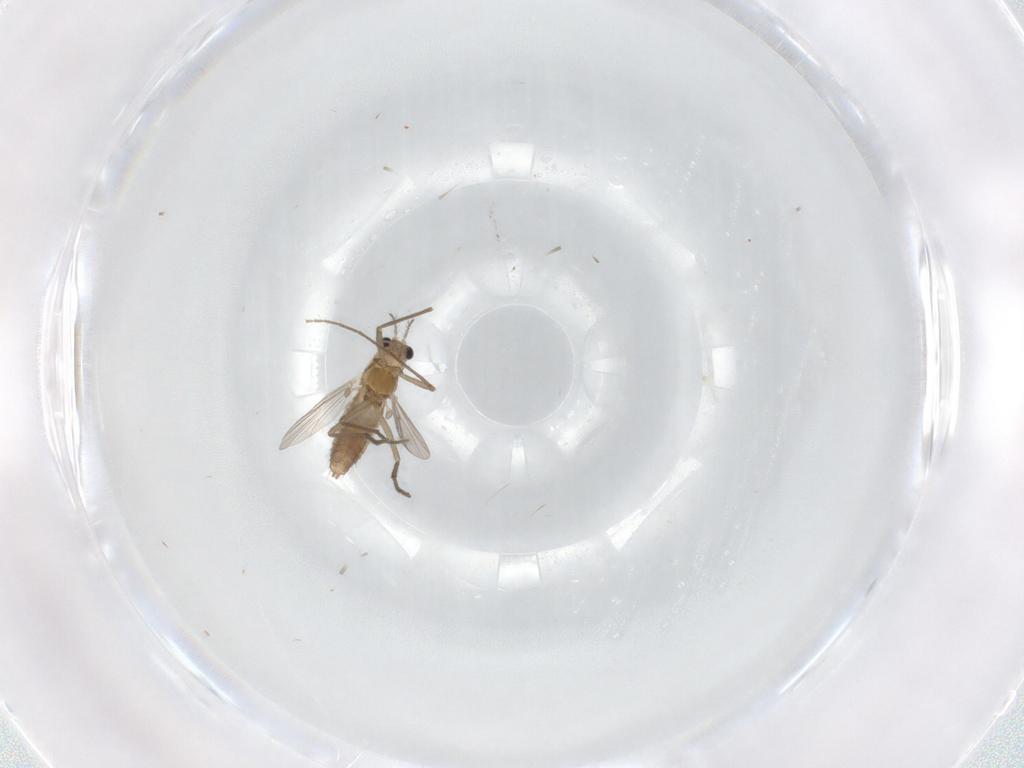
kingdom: Animalia
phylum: Arthropoda
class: Insecta
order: Diptera
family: Chironomidae
